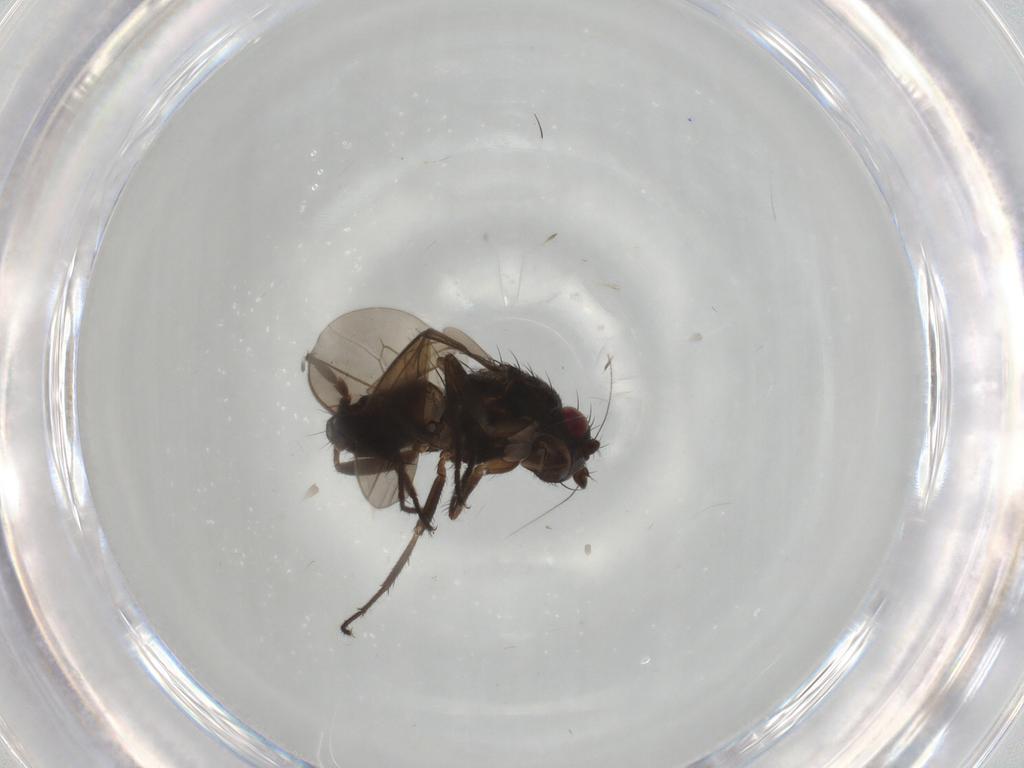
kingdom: Animalia
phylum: Arthropoda
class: Insecta
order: Diptera
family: Sphaeroceridae
